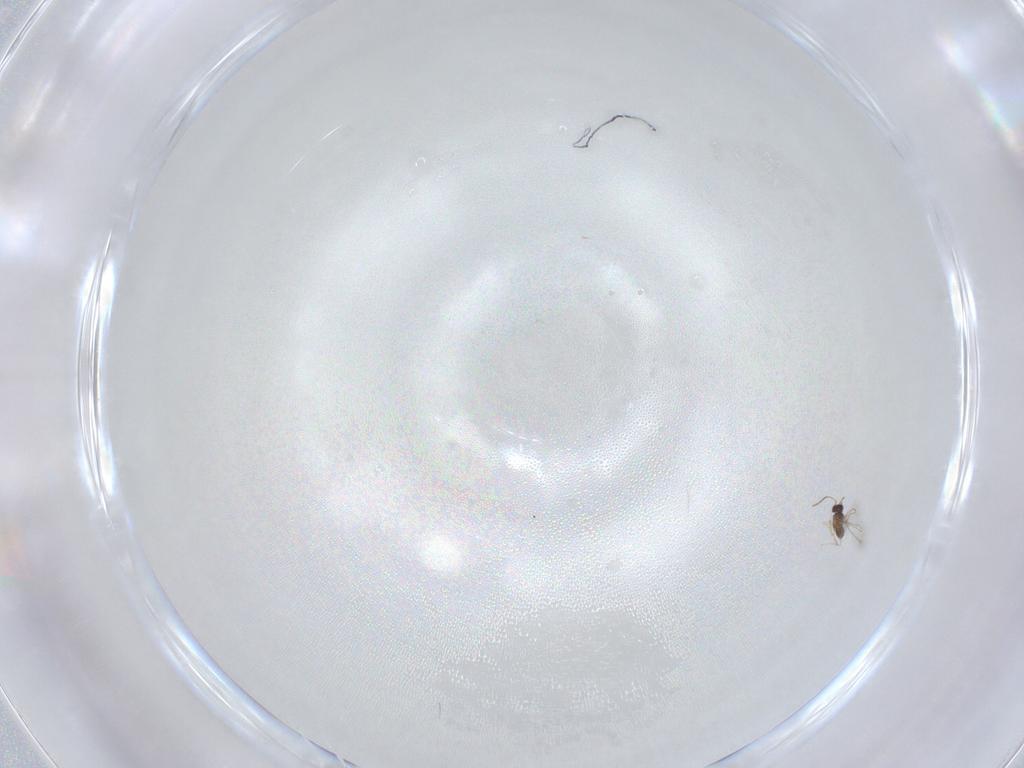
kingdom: Animalia
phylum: Arthropoda
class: Insecta
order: Hymenoptera
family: Scelionidae
